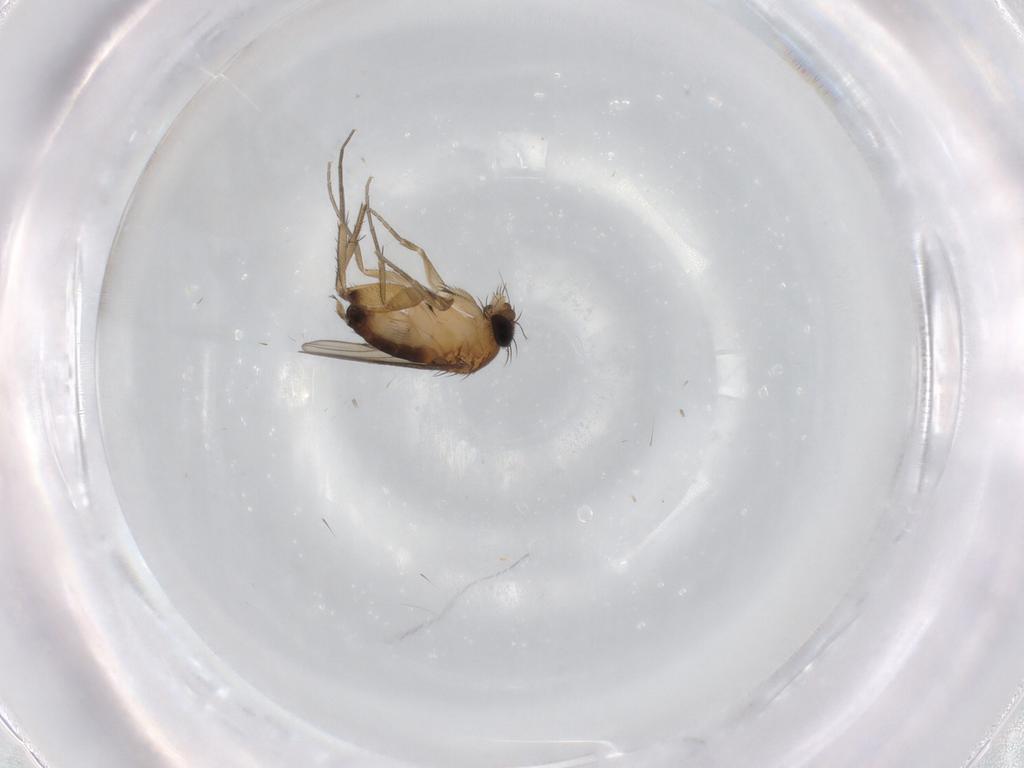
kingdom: Animalia
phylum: Arthropoda
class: Insecta
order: Diptera
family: Phoridae
